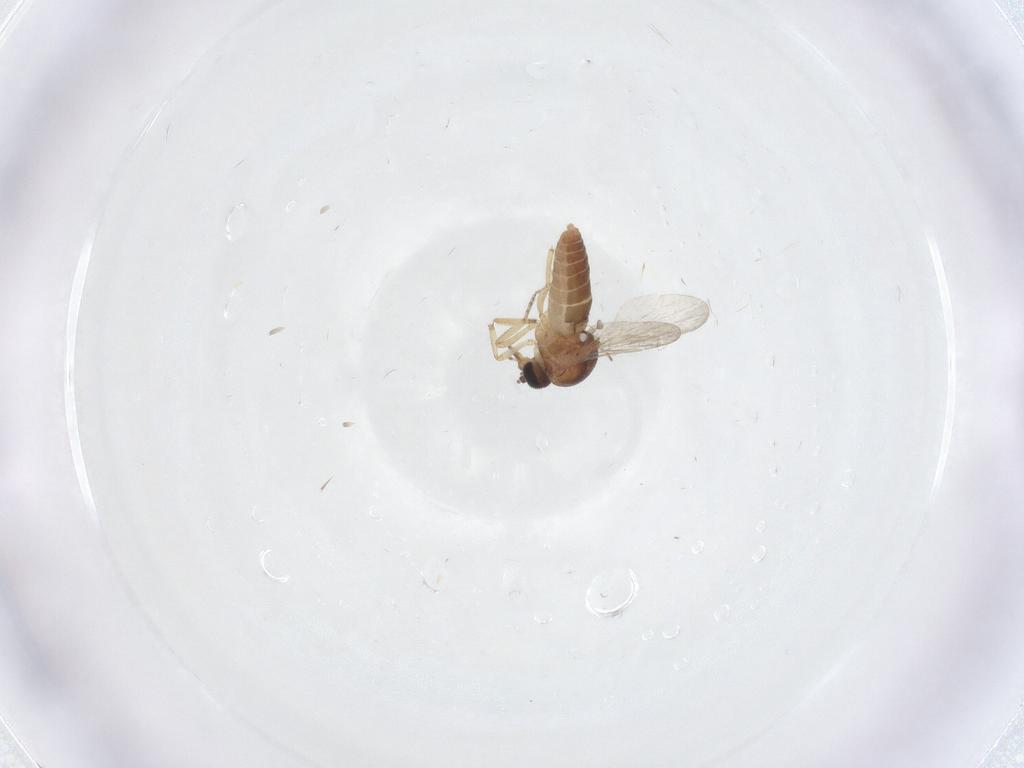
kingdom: Animalia
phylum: Arthropoda
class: Insecta
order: Diptera
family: Ceratopogonidae
